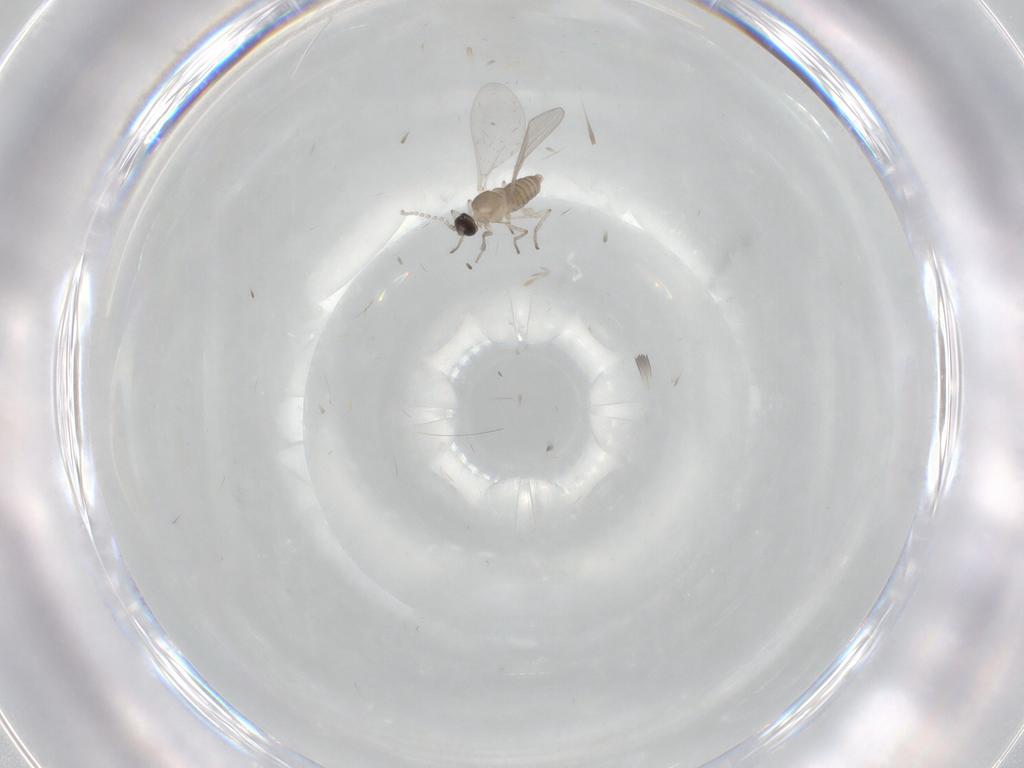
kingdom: Animalia
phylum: Arthropoda
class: Insecta
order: Diptera
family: Cecidomyiidae
